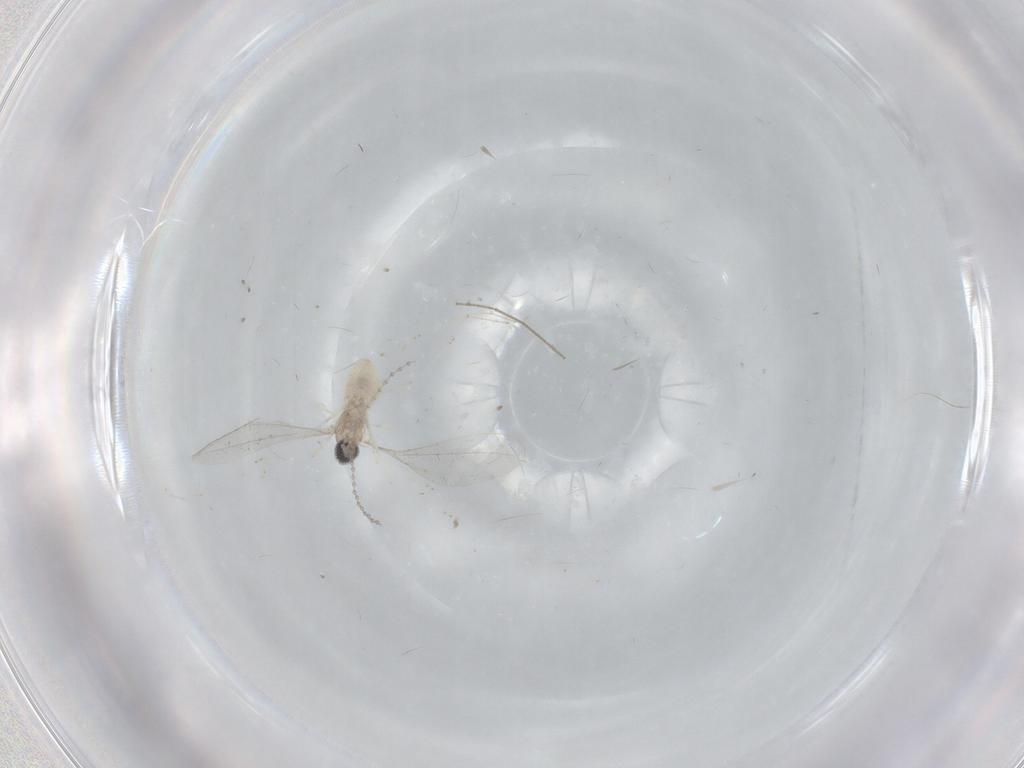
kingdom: Animalia
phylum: Arthropoda
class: Insecta
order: Diptera
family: Cecidomyiidae
